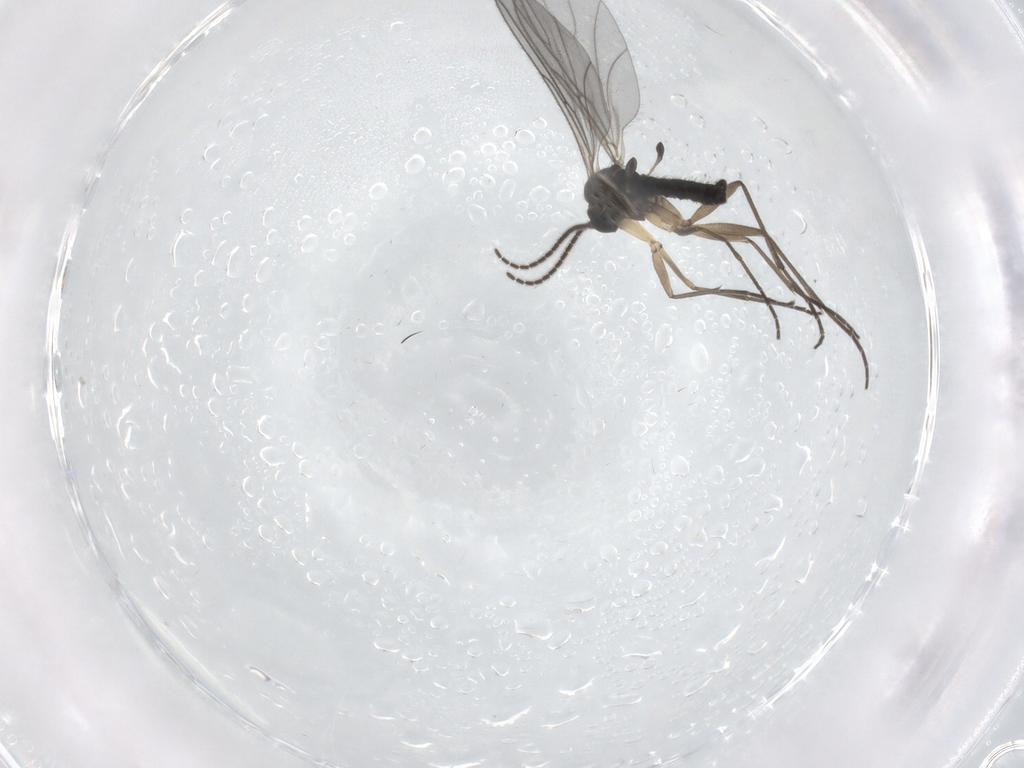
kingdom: Animalia
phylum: Arthropoda
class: Insecta
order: Diptera
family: Sciaridae
